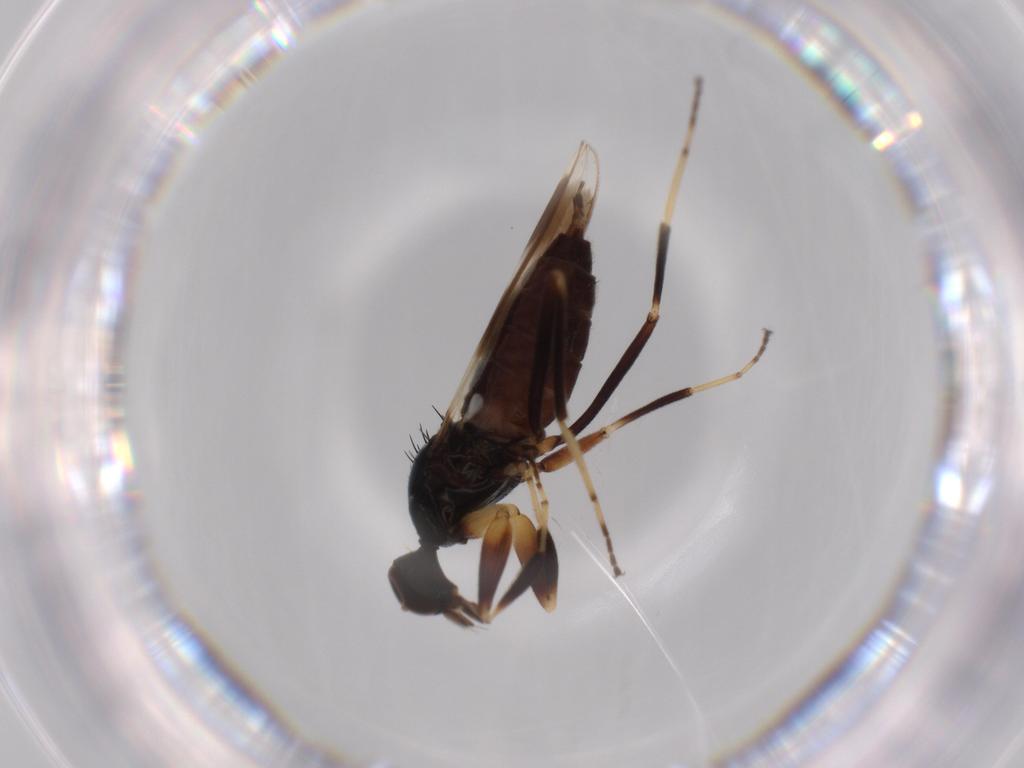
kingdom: Animalia
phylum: Arthropoda
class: Insecta
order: Diptera
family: Hybotidae
